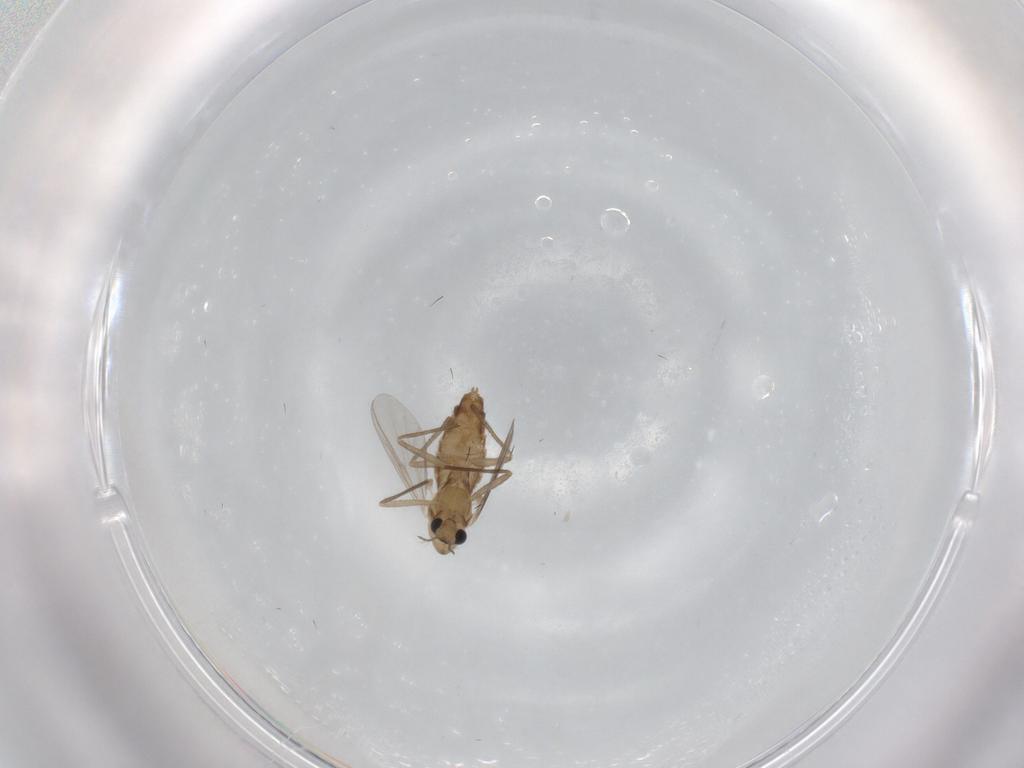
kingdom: Animalia
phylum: Arthropoda
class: Insecta
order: Diptera
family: Chironomidae
